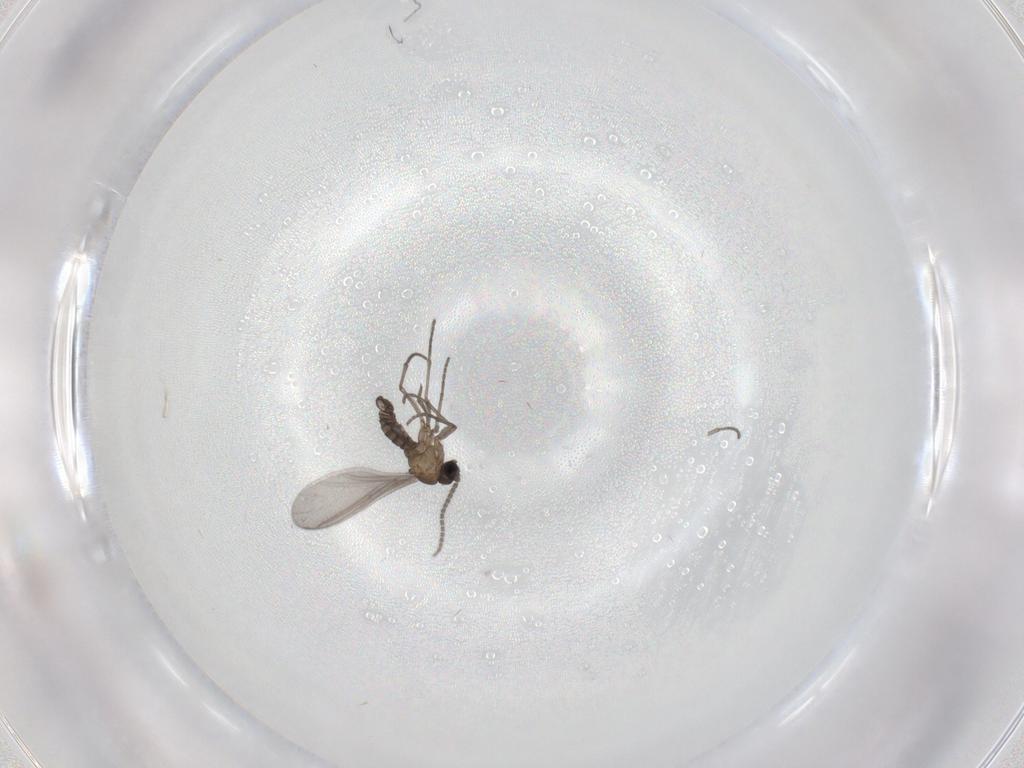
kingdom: Animalia
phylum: Arthropoda
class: Insecta
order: Diptera
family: Sciaridae
